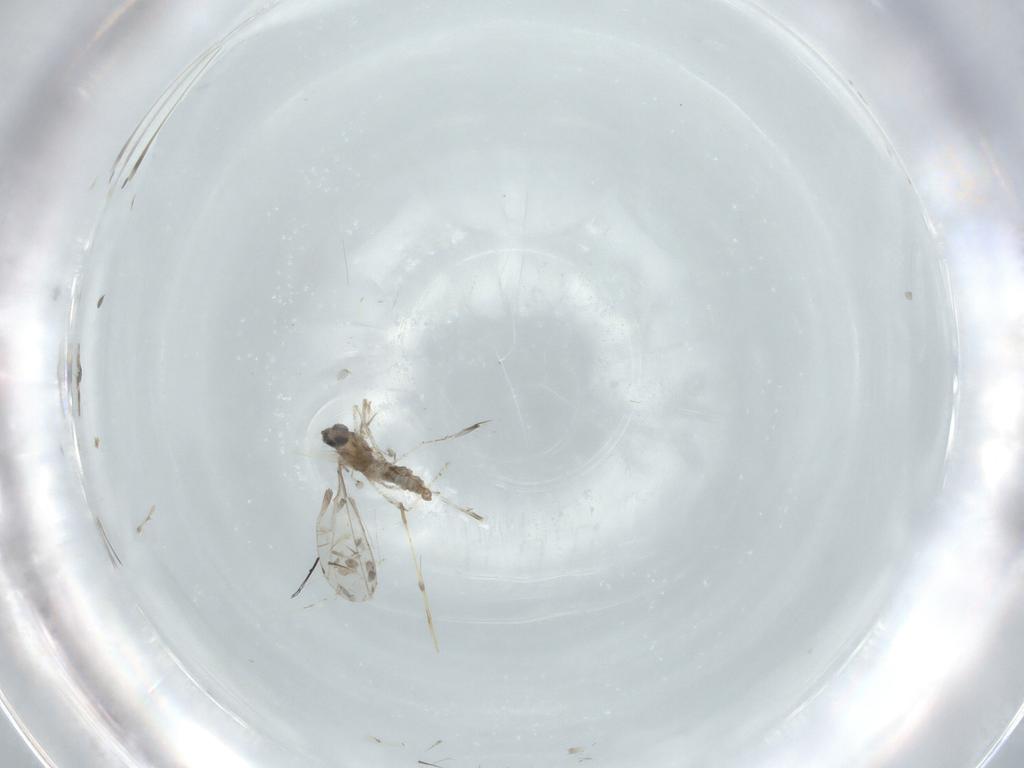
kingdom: Animalia
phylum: Arthropoda
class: Insecta
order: Diptera
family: Cecidomyiidae
